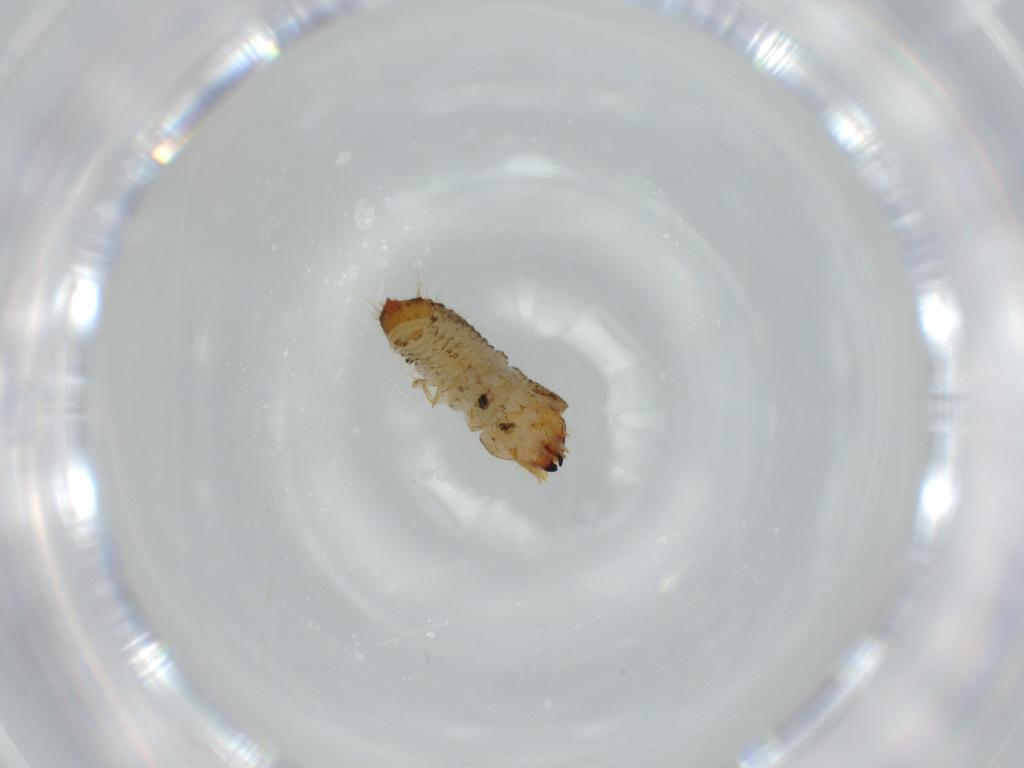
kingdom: Animalia
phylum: Arthropoda
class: Insecta
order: Coleoptera
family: Lymexylidae
